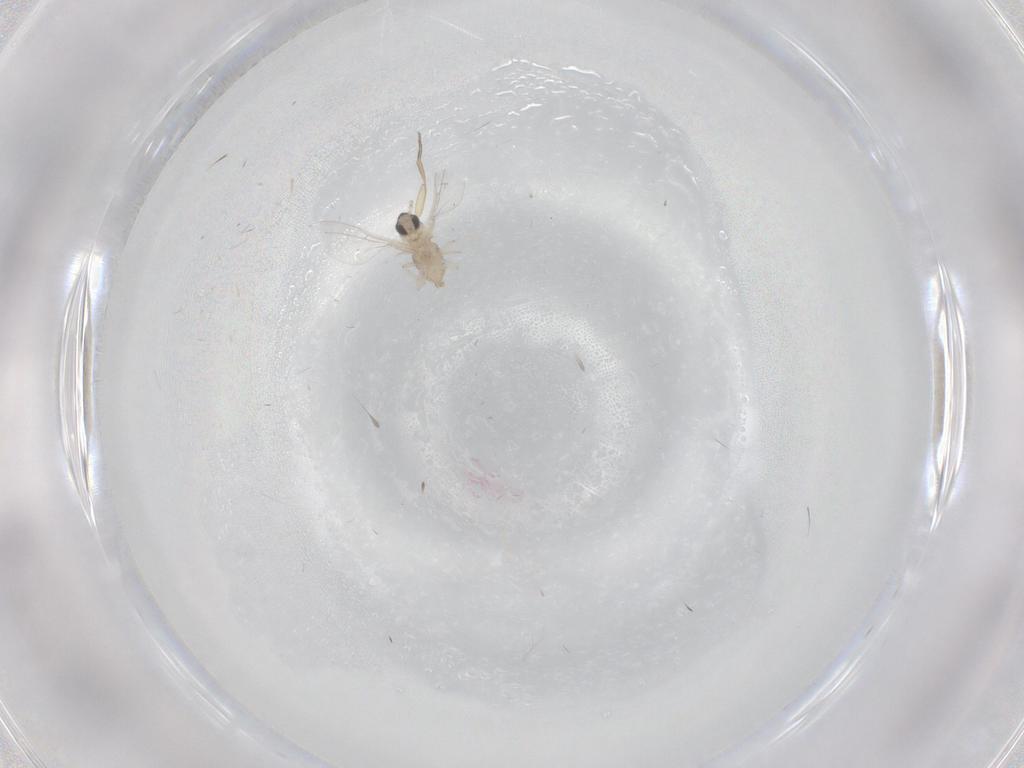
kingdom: Animalia
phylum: Arthropoda
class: Insecta
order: Diptera
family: Cecidomyiidae
